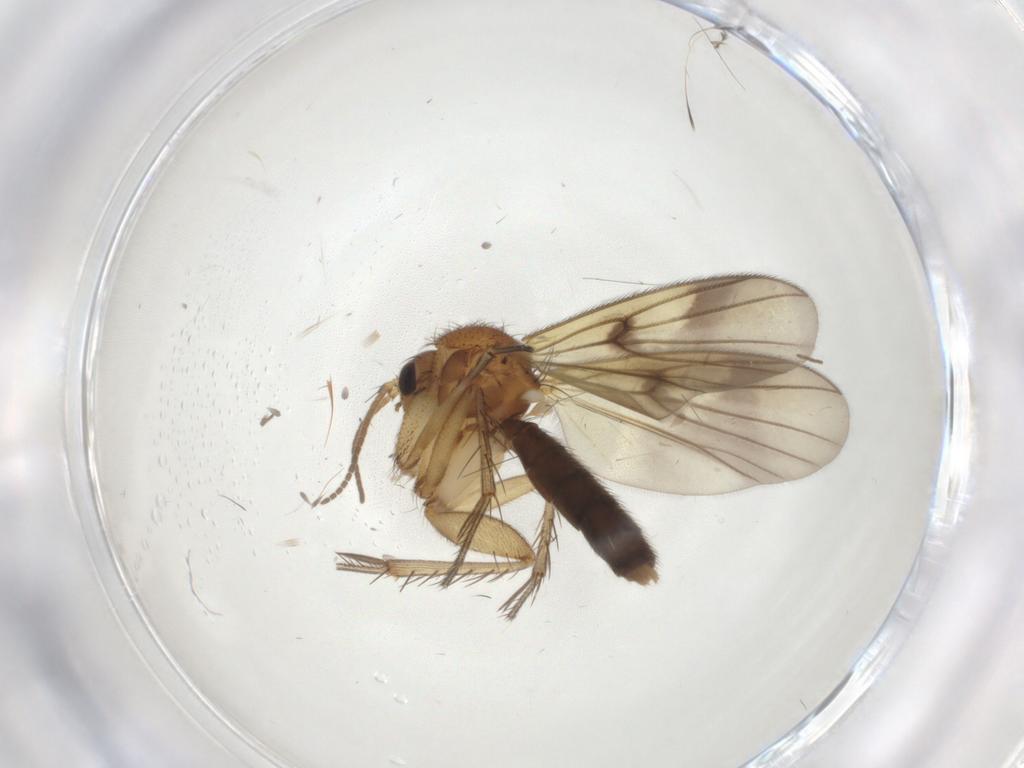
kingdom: Animalia
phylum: Arthropoda
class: Insecta
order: Diptera
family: Mycetophilidae
